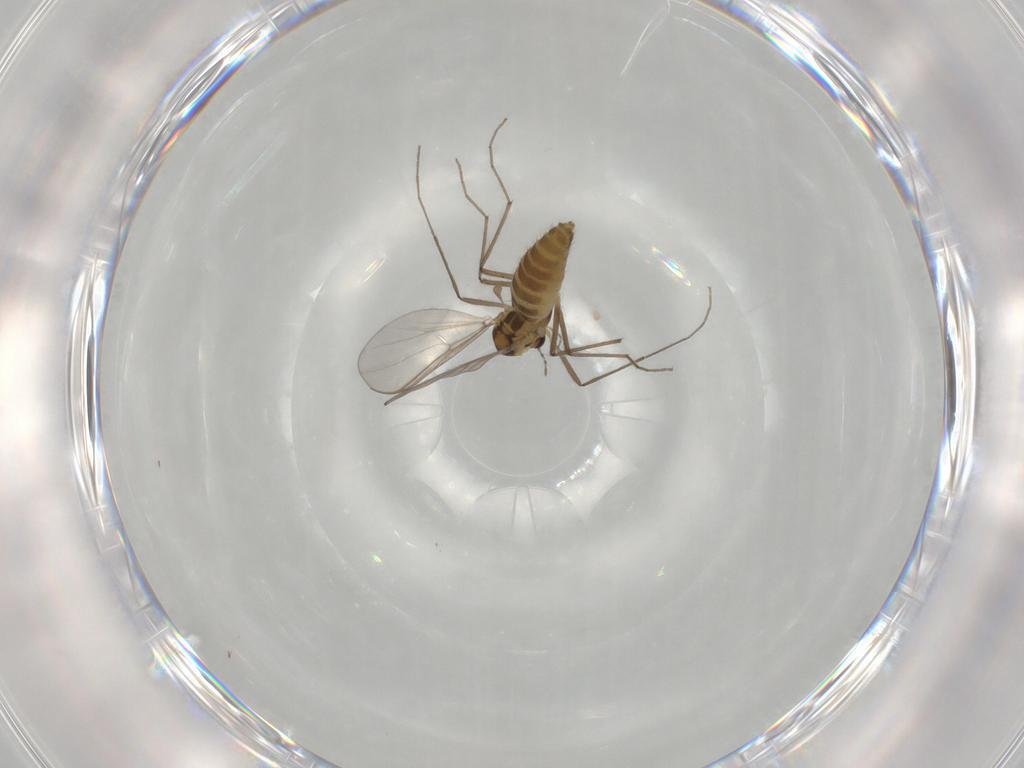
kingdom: Animalia
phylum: Arthropoda
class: Insecta
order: Diptera
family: Chironomidae
